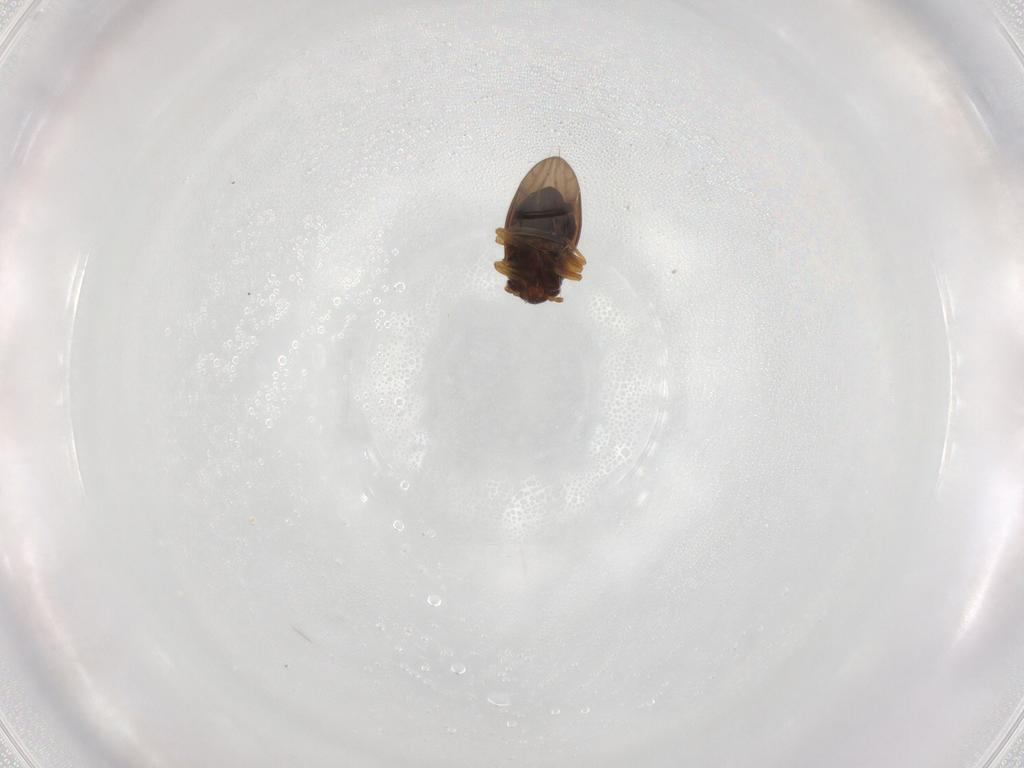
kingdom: Animalia
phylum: Arthropoda
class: Insecta
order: Hemiptera
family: Schizopteridae
